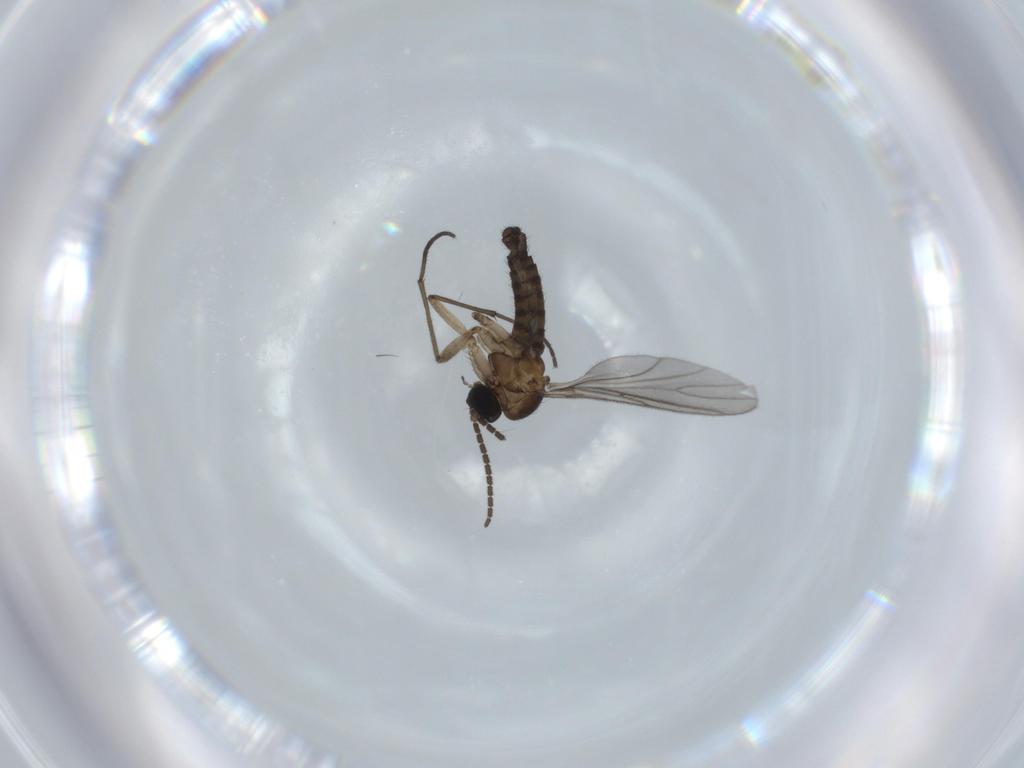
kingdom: Animalia
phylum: Arthropoda
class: Insecta
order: Diptera
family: Sciaridae
